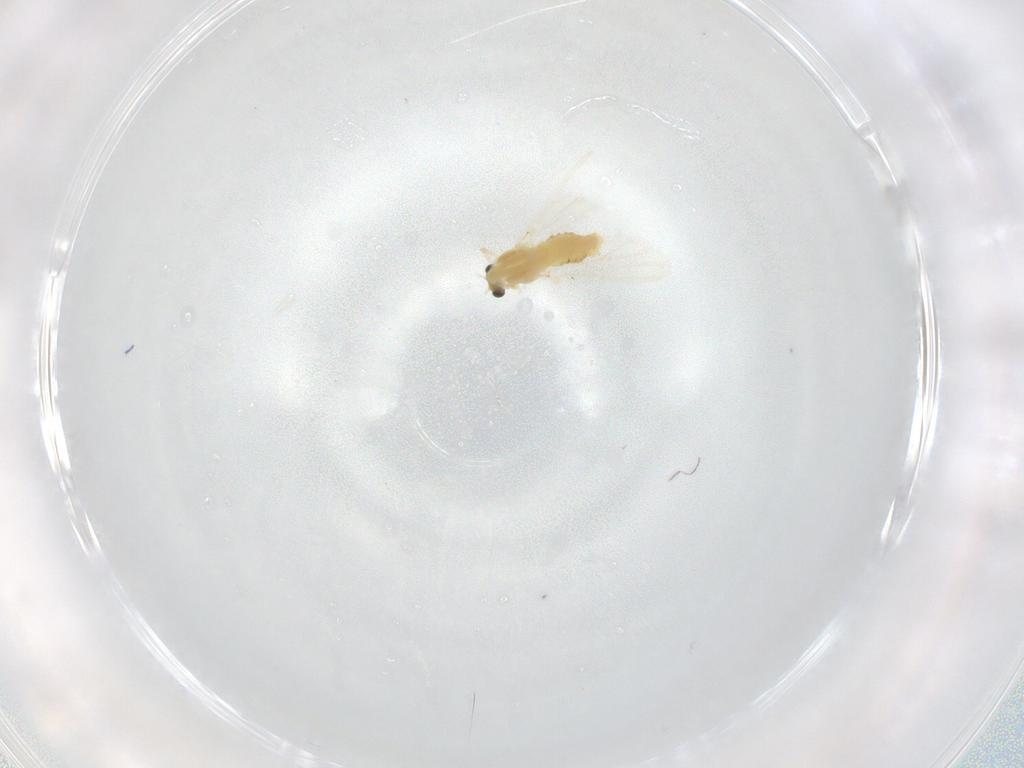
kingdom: Animalia
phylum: Arthropoda
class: Insecta
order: Diptera
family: Chironomidae
